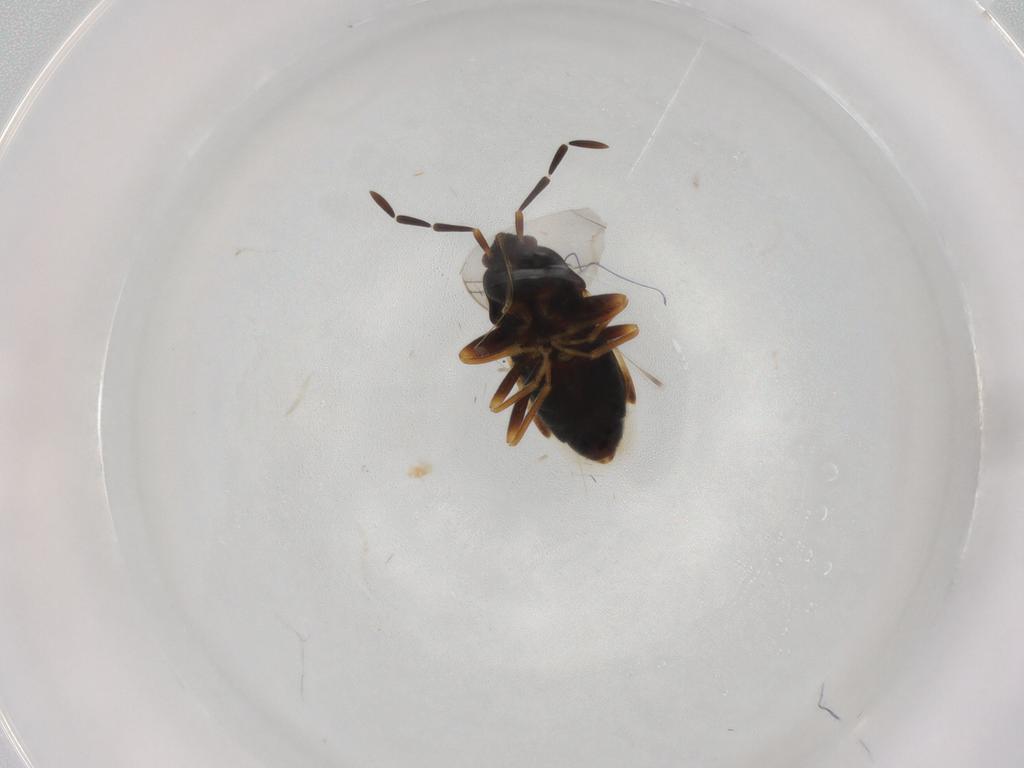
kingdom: Animalia
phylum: Arthropoda
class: Insecta
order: Hemiptera
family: Rhyparochromidae
